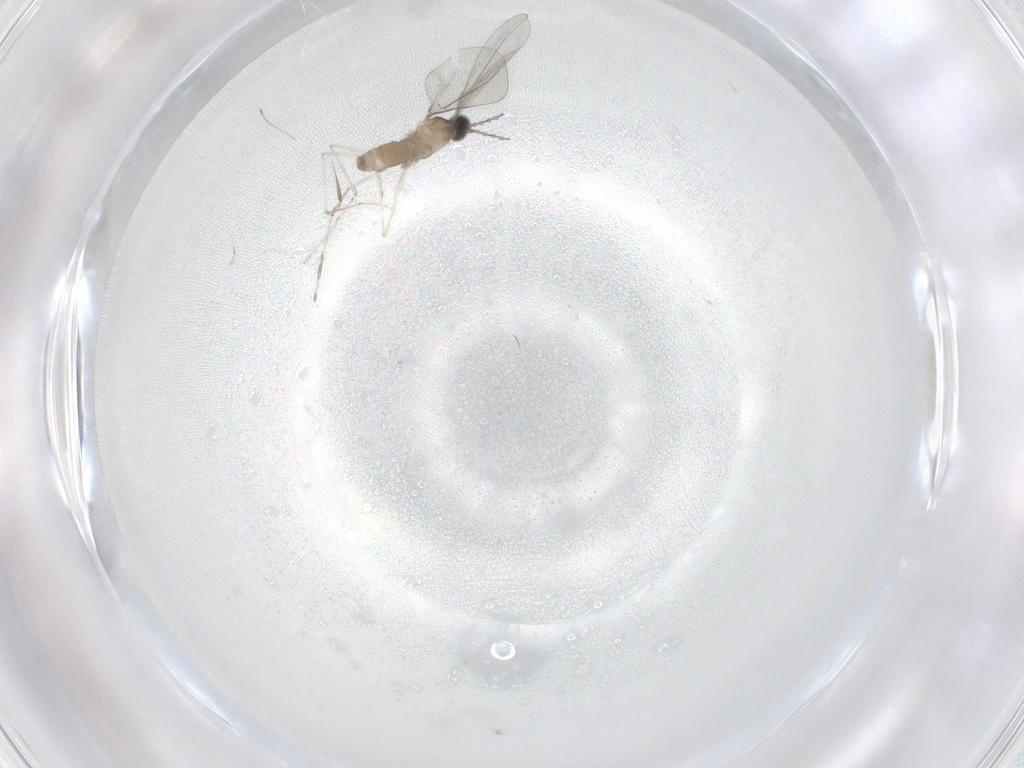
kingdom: Animalia
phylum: Arthropoda
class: Insecta
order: Diptera
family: Cecidomyiidae
